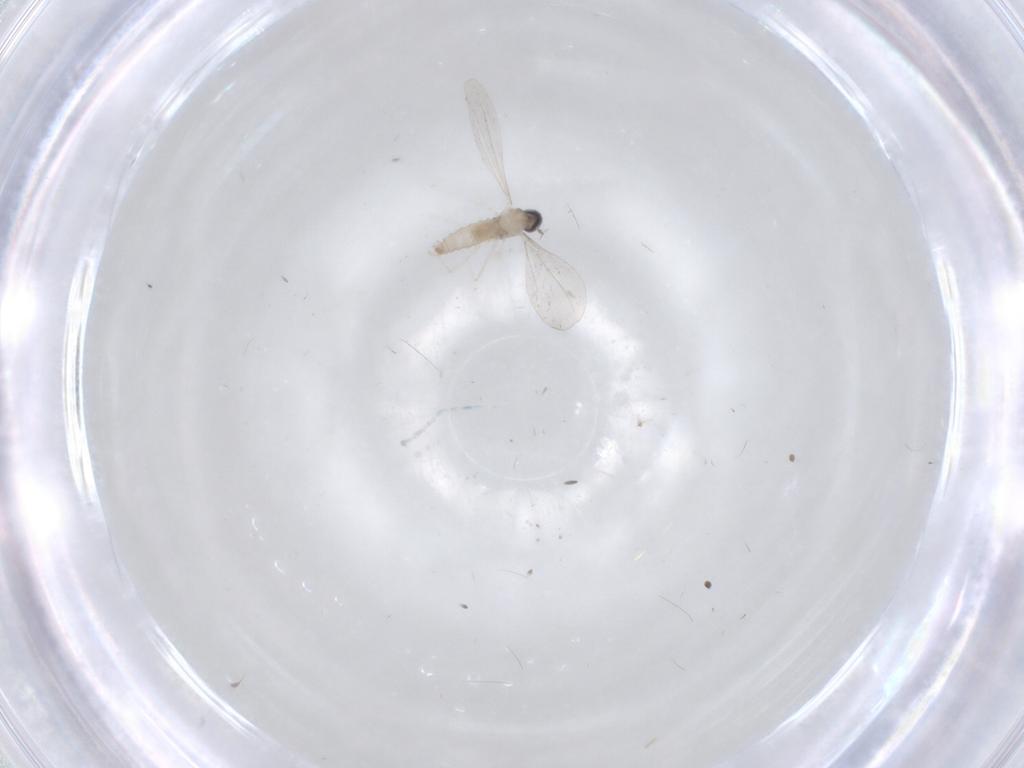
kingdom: Animalia
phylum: Arthropoda
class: Insecta
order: Diptera
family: Cecidomyiidae
